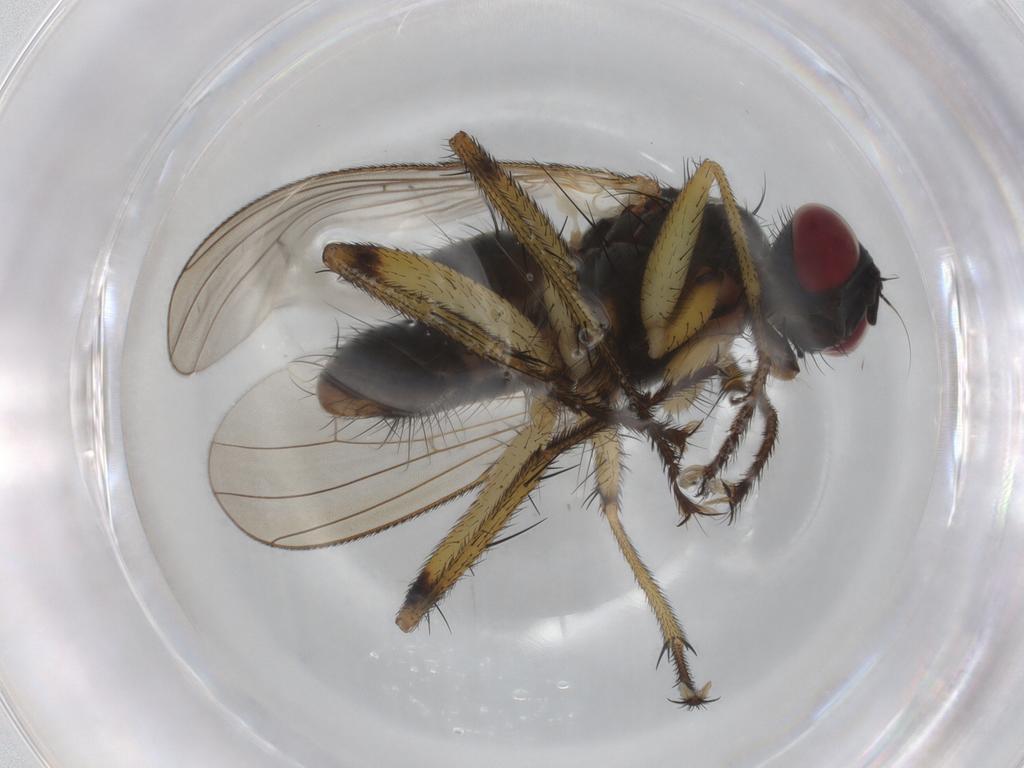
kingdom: Animalia
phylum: Arthropoda
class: Insecta
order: Diptera
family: Muscidae
